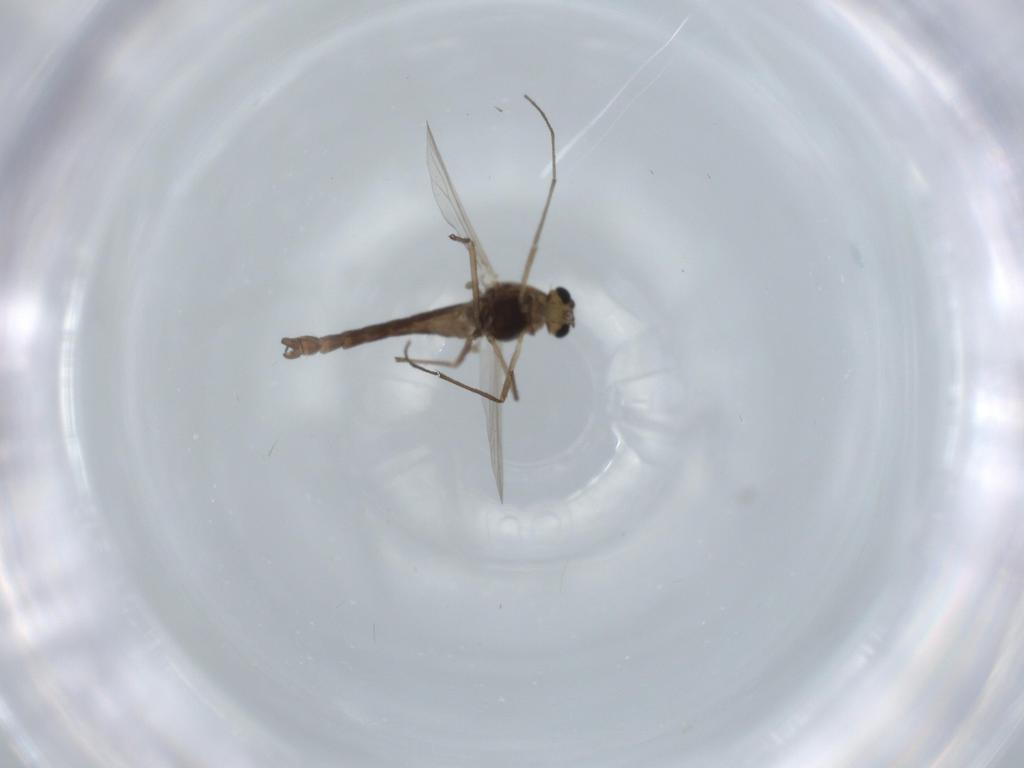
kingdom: Animalia
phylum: Arthropoda
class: Insecta
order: Diptera
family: Chironomidae
